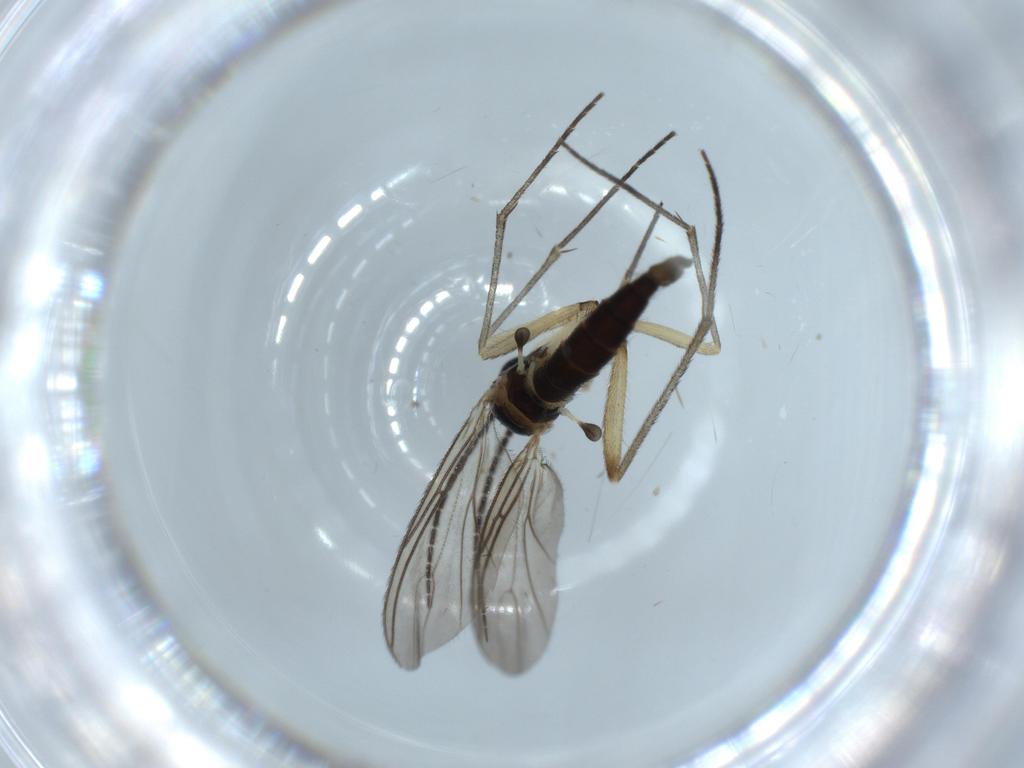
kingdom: Animalia
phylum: Arthropoda
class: Insecta
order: Diptera
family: Sciaridae
